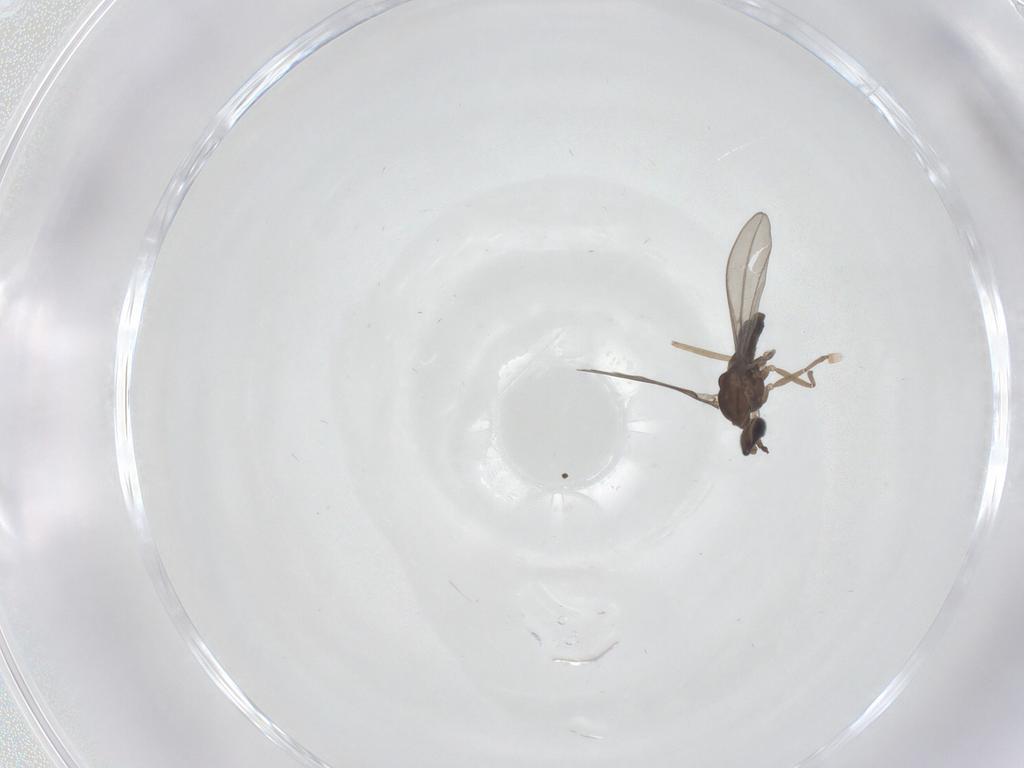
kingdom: Animalia
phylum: Arthropoda
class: Insecta
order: Diptera
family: Cecidomyiidae
